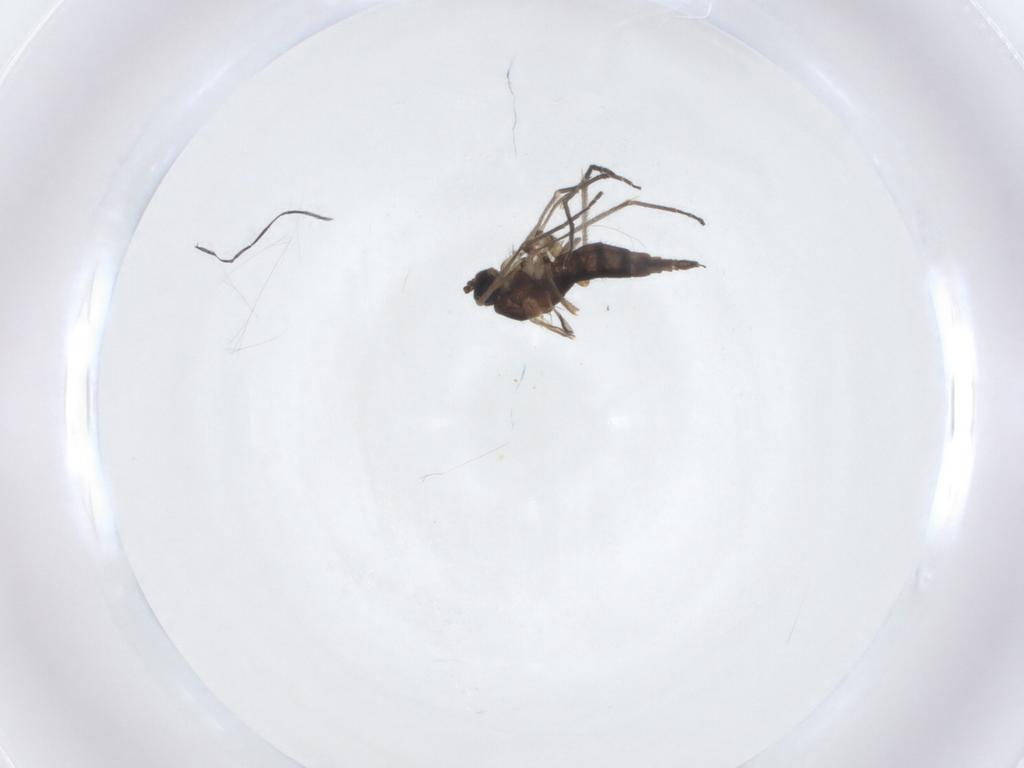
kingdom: Animalia
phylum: Arthropoda
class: Insecta
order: Diptera
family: Sciaridae
